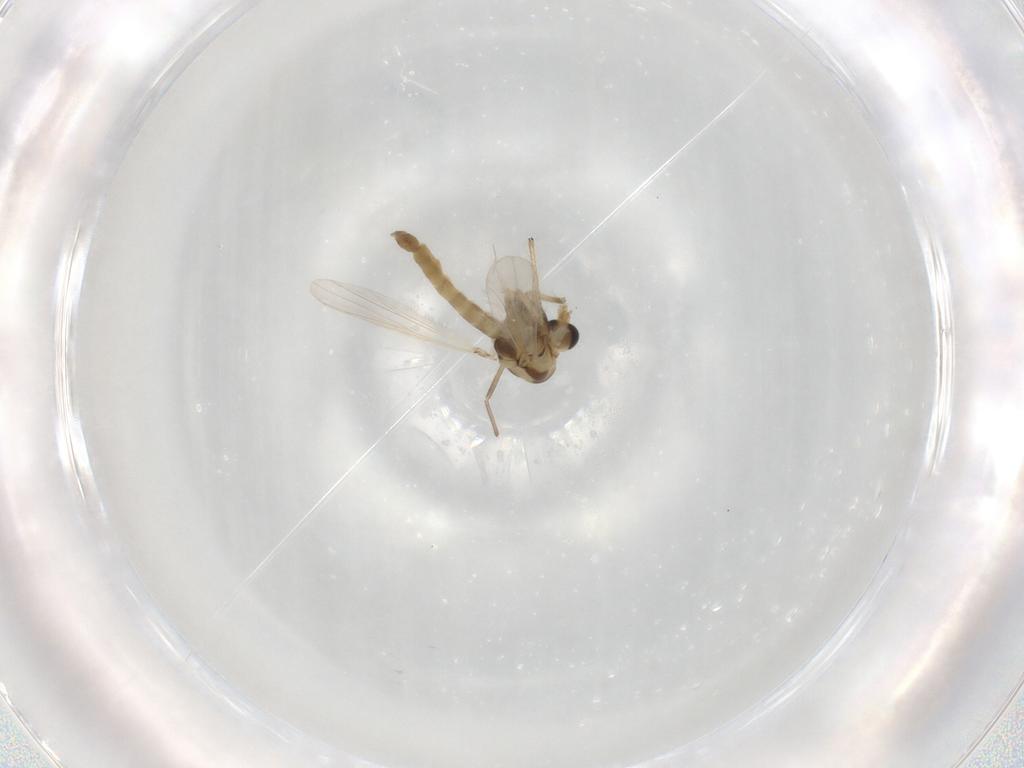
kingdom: Animalia
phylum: Arthropoda
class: Insecta
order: Diptera
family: Chironomidae
